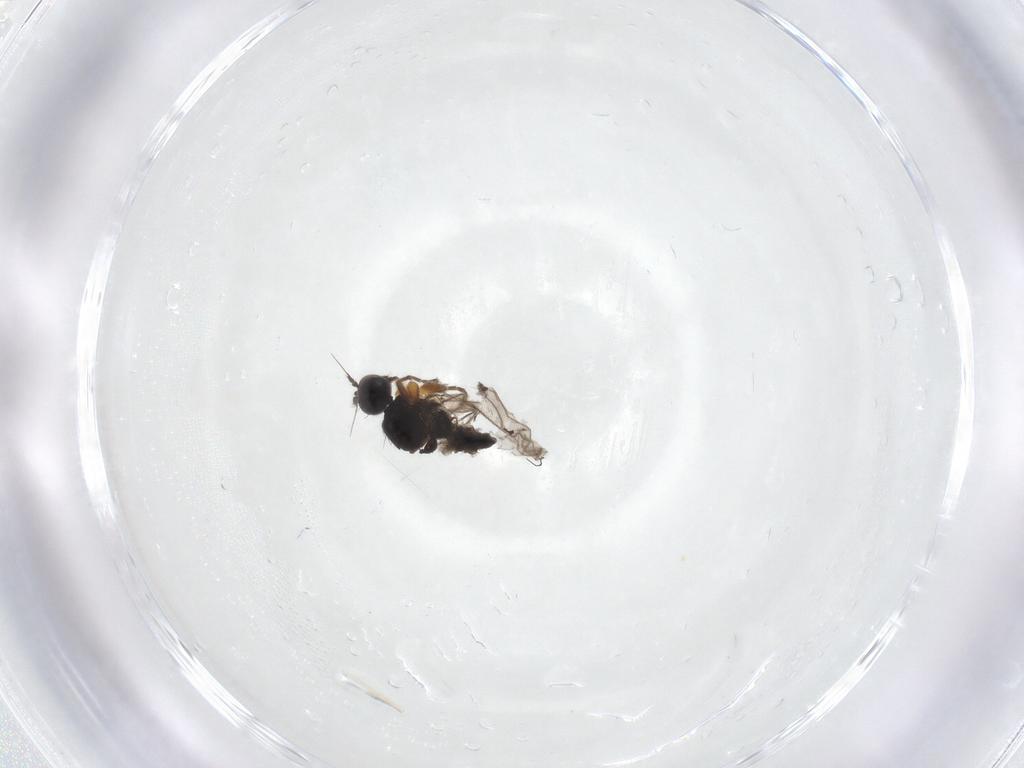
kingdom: Animalia
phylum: Arthropoda
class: Insecta
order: Diptera
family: Hybotidae
